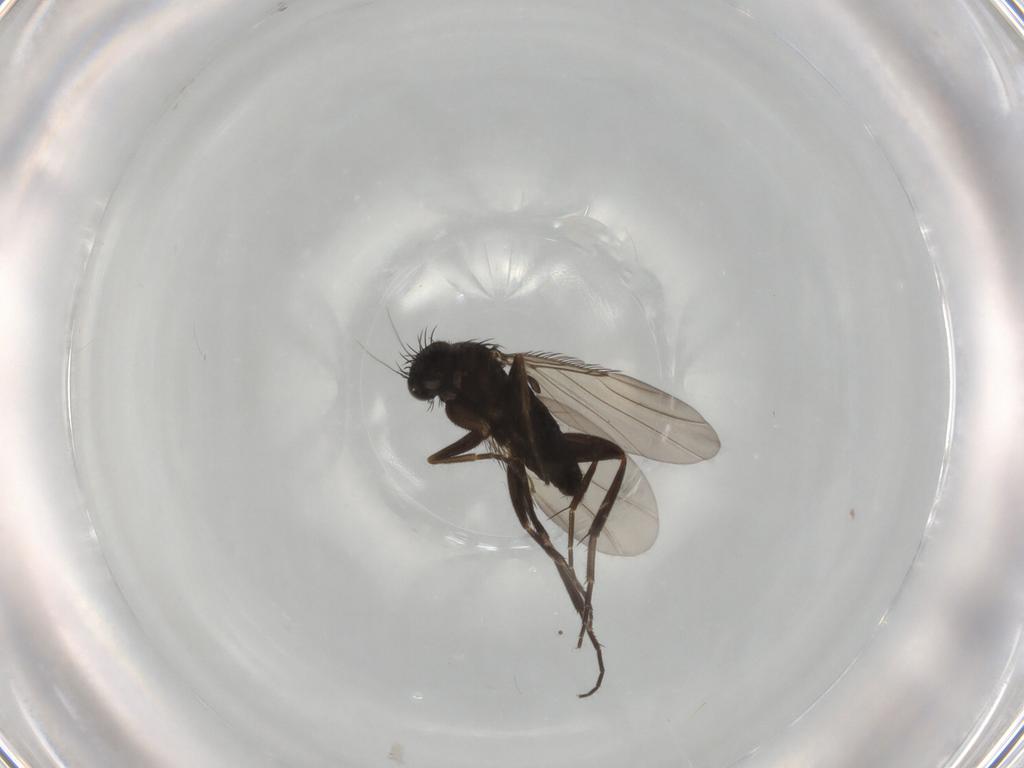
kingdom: Animalia
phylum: Arthropoda
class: Insecta
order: Diptera
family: Phoridae
